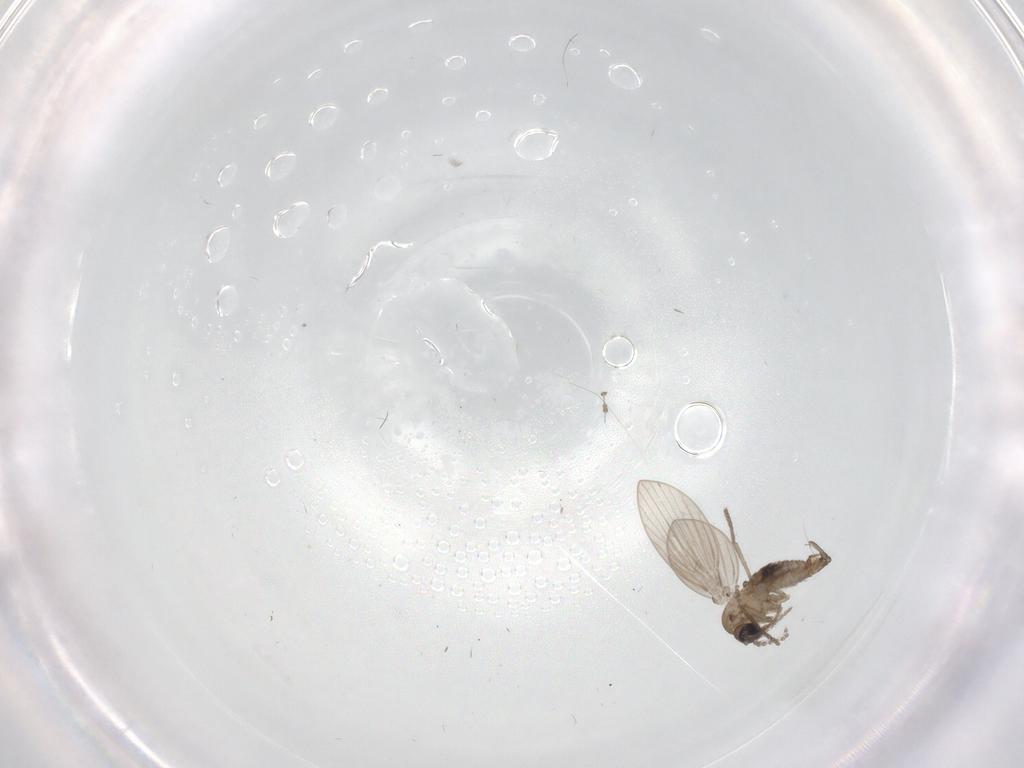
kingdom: Animalia
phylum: Arthropoda
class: Insecta
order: Diptera
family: Psychodidae
